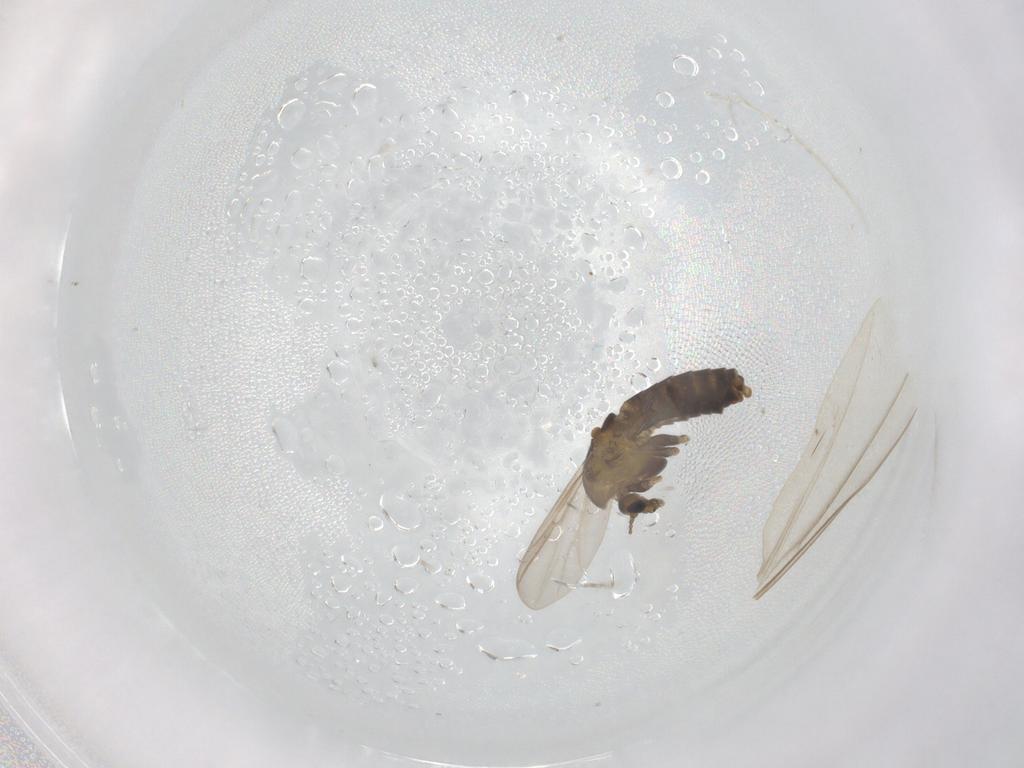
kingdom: Animalia
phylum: Arthropoda
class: Insecta
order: Diptera
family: Chironomidae
